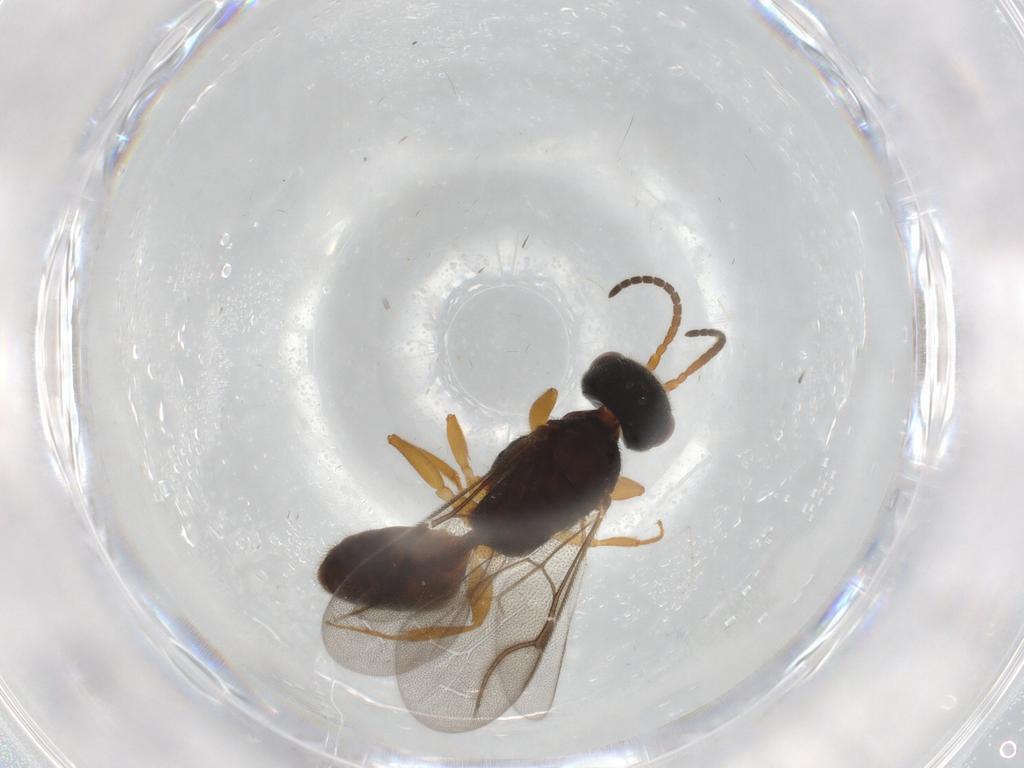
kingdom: Animalia
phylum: Arthropoda
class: Insecta
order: Hymenoptera
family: Bethylidae
